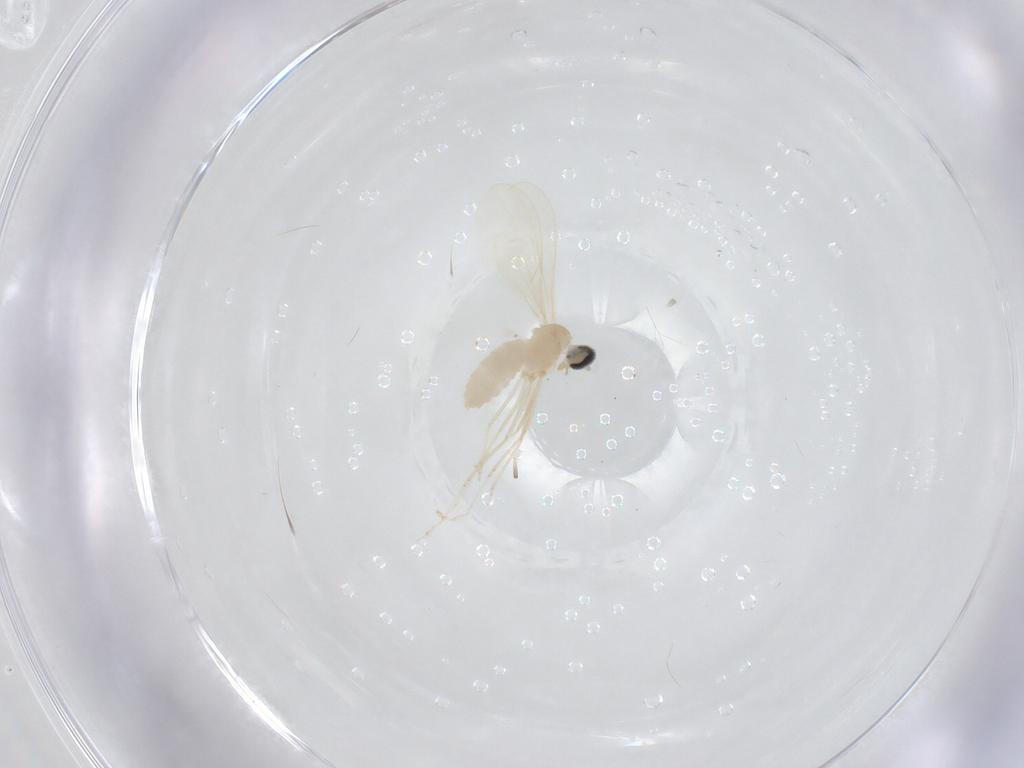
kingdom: Animalia
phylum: Arthropoda
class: Insecta
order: Diptera
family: Cecidomyiidae
